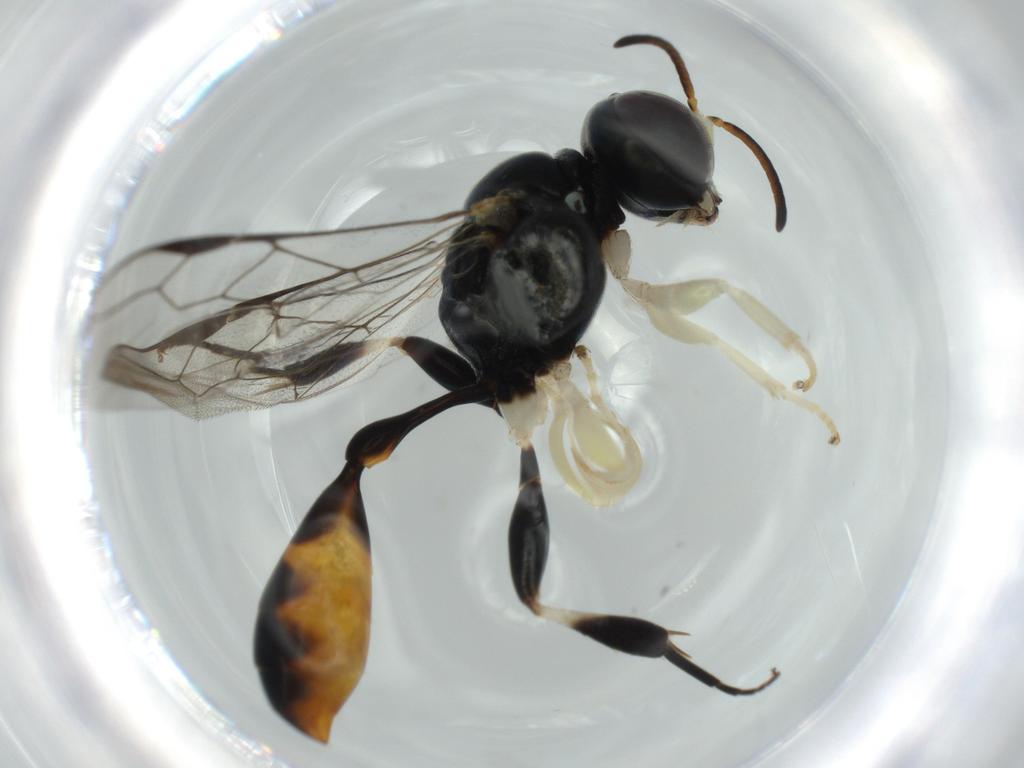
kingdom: Animalia
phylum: Arthropoda
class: Insecta
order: Hymenoptera
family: Crabronidae
